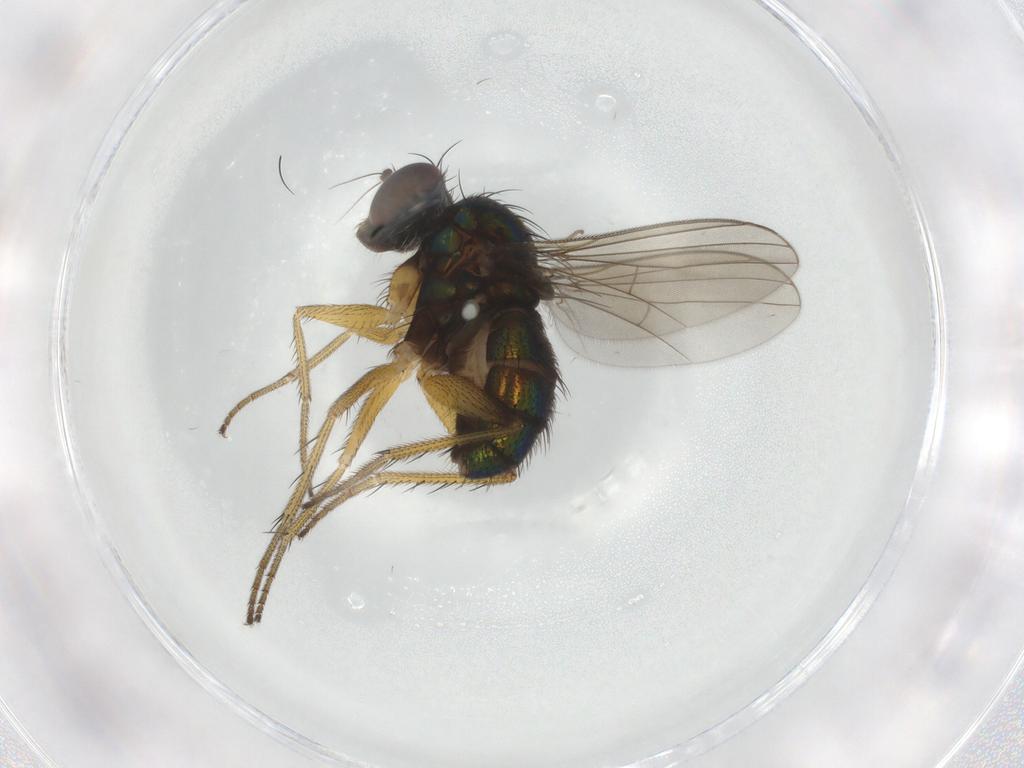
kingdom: Animalia
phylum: Arthropoda
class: Insecta
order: Diptera
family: Dolichopodidae
